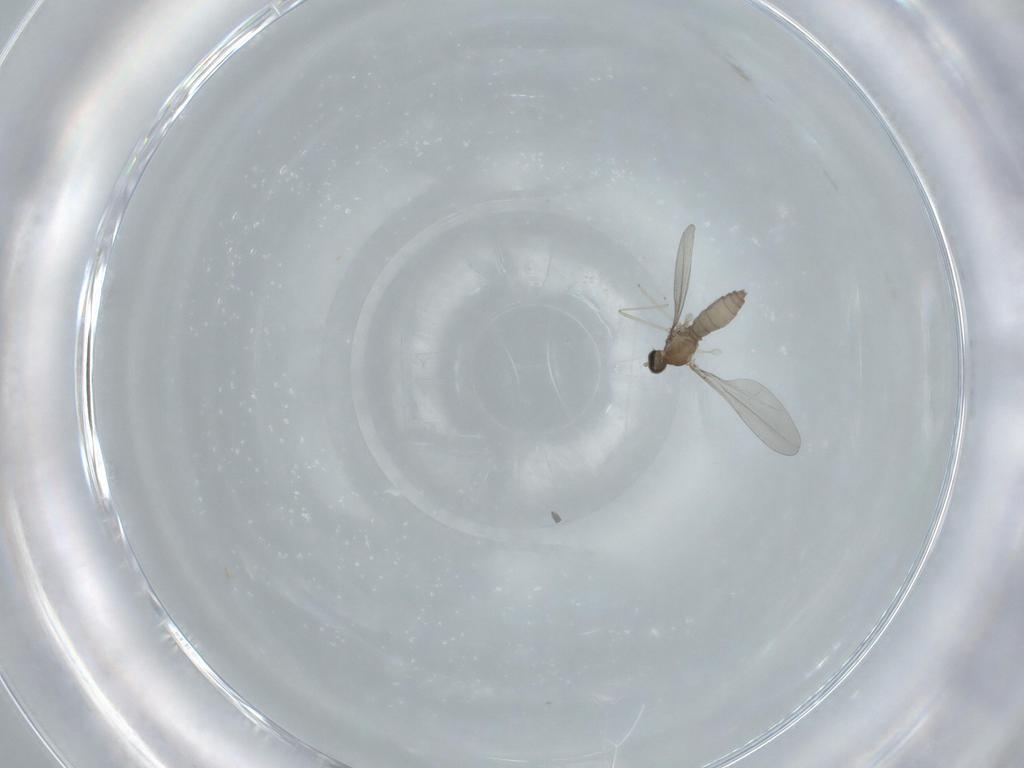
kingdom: Animalia
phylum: Arthropoda
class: Insecta
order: Diptera
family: Cecidomyiidae
